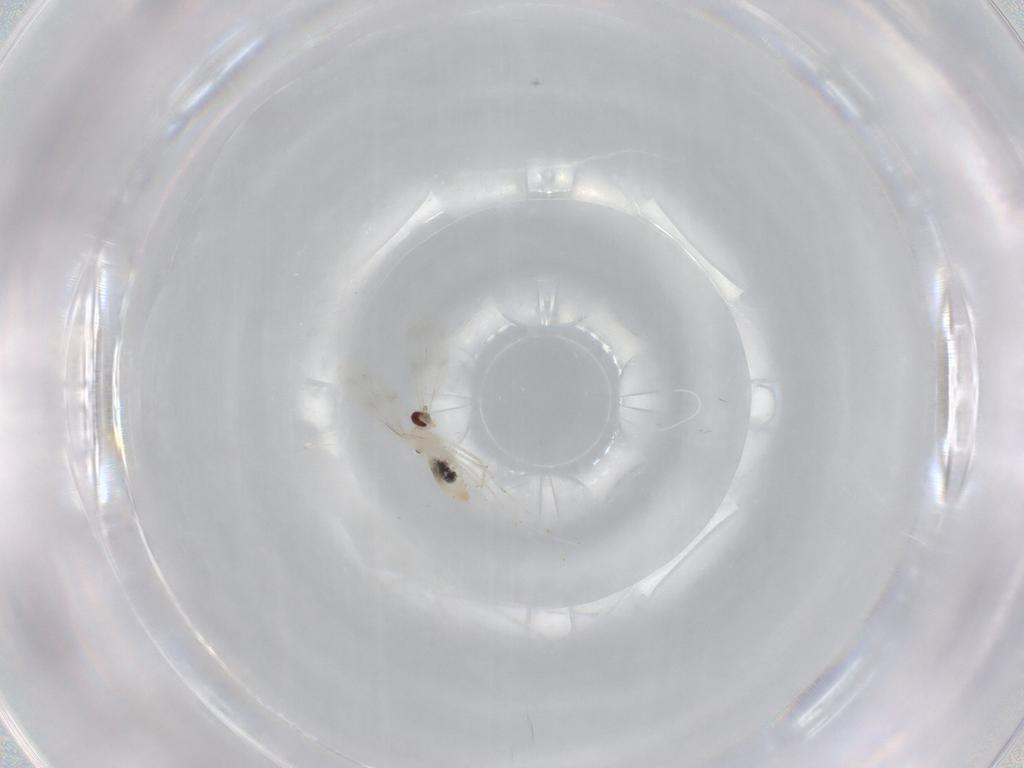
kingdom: Animalia
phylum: Arthropoda
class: Insecta
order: Diptera
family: Cecidomyiidae
